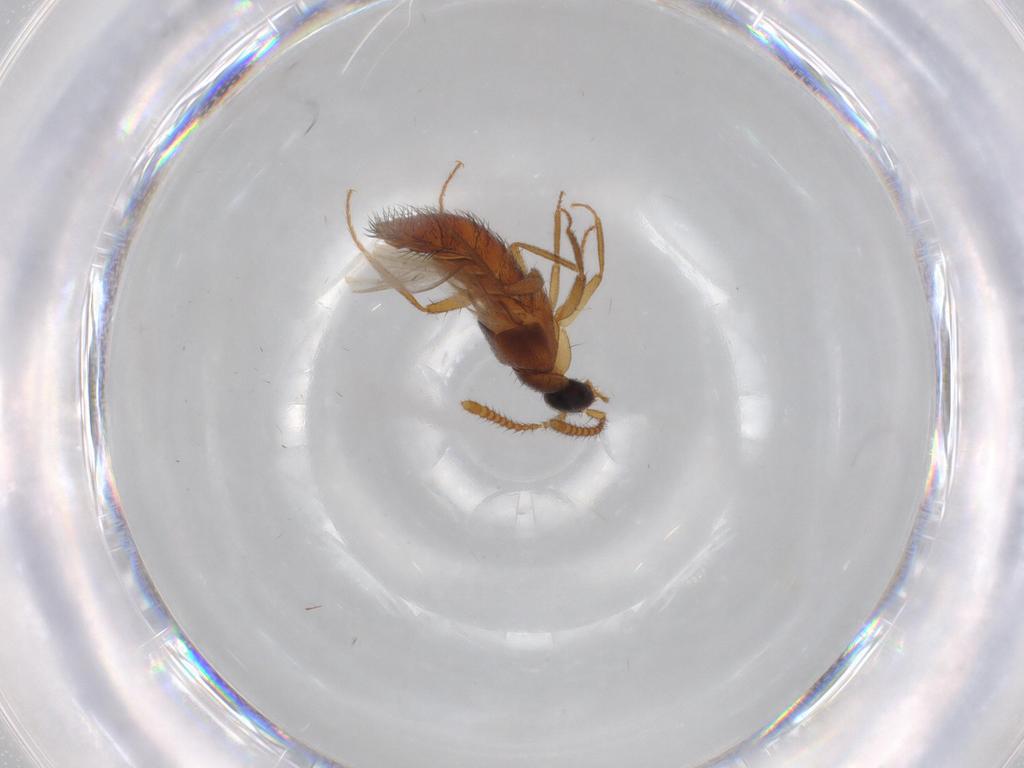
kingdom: Animalia
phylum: Arthropoda
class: Insecta
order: Coleoptera
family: Staphylinidae
